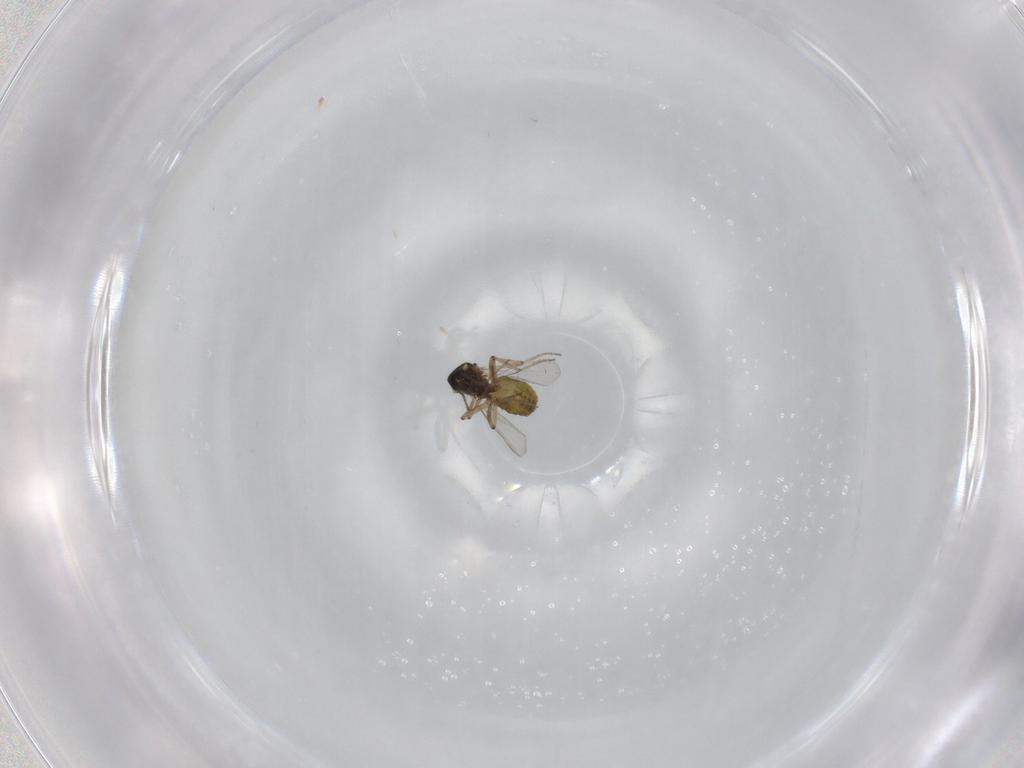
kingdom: Animalia
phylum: Arthropoda
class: Insecta
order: Diptera
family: Ceratopogonidae
